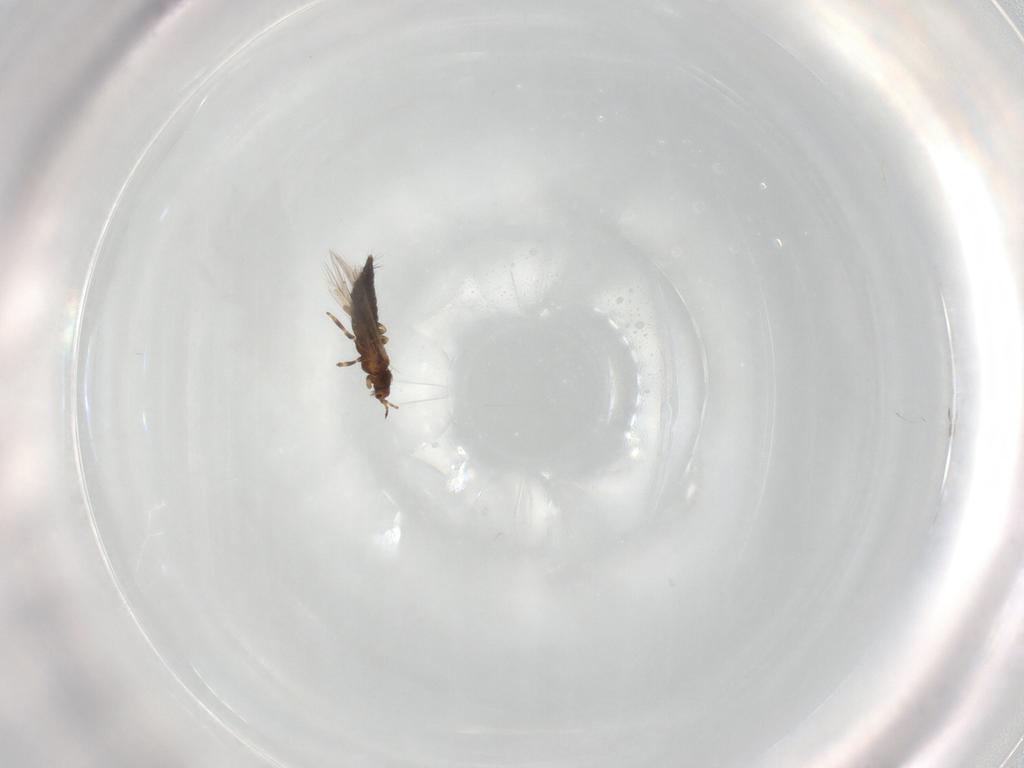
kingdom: Animalia
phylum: Arthropoda
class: Insecta
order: Thysanoptera
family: Thripidae
